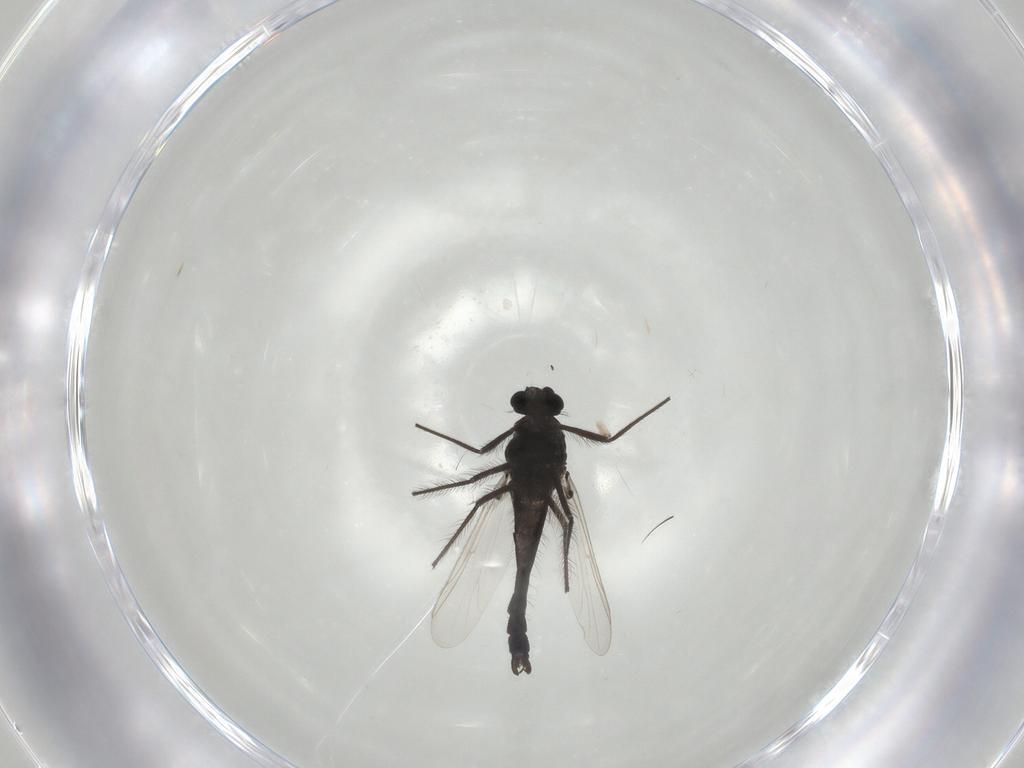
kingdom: Animalia
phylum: Arthropoda
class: Insecta
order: Diptera
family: Chironomidae
